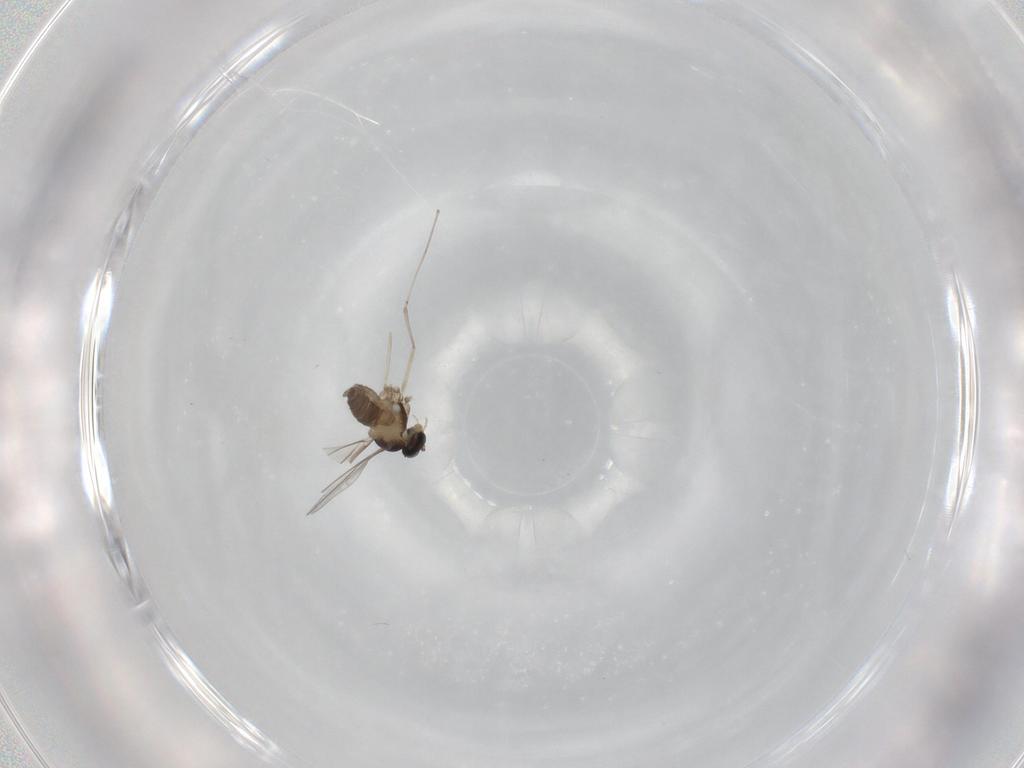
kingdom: Animalia
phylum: Arthropoda
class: Insecta
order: Diptera
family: Cecidomyiidae
